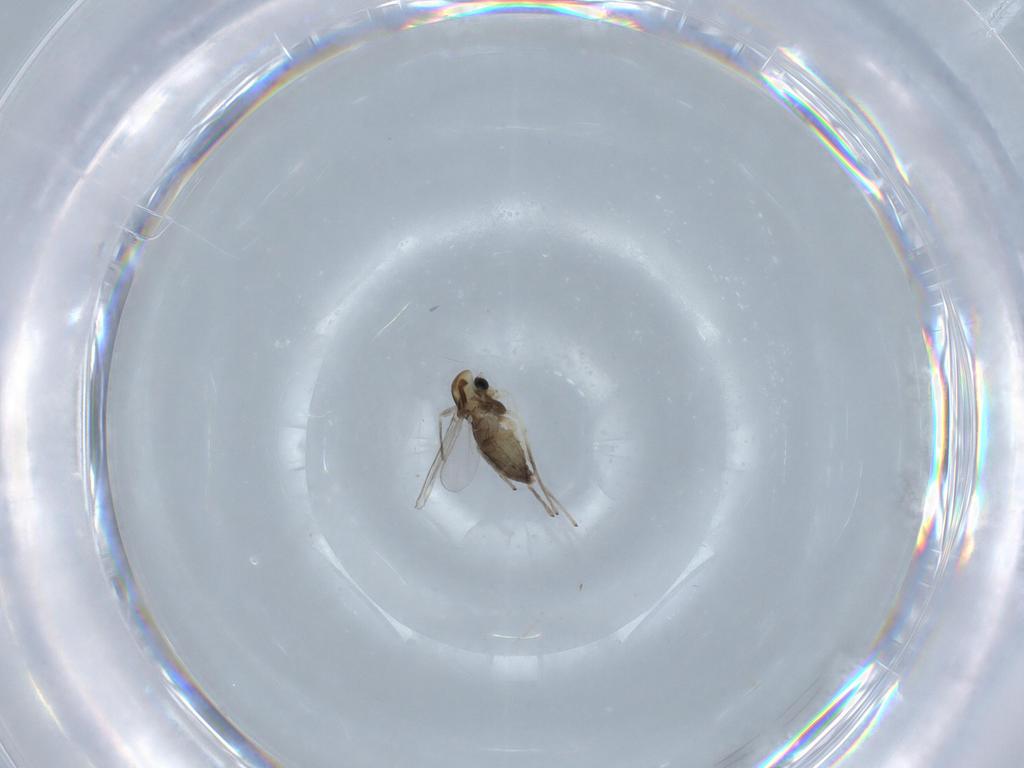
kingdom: Animalia
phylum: Arthropoda
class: Insecta
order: Diptera
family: Chironomidae
